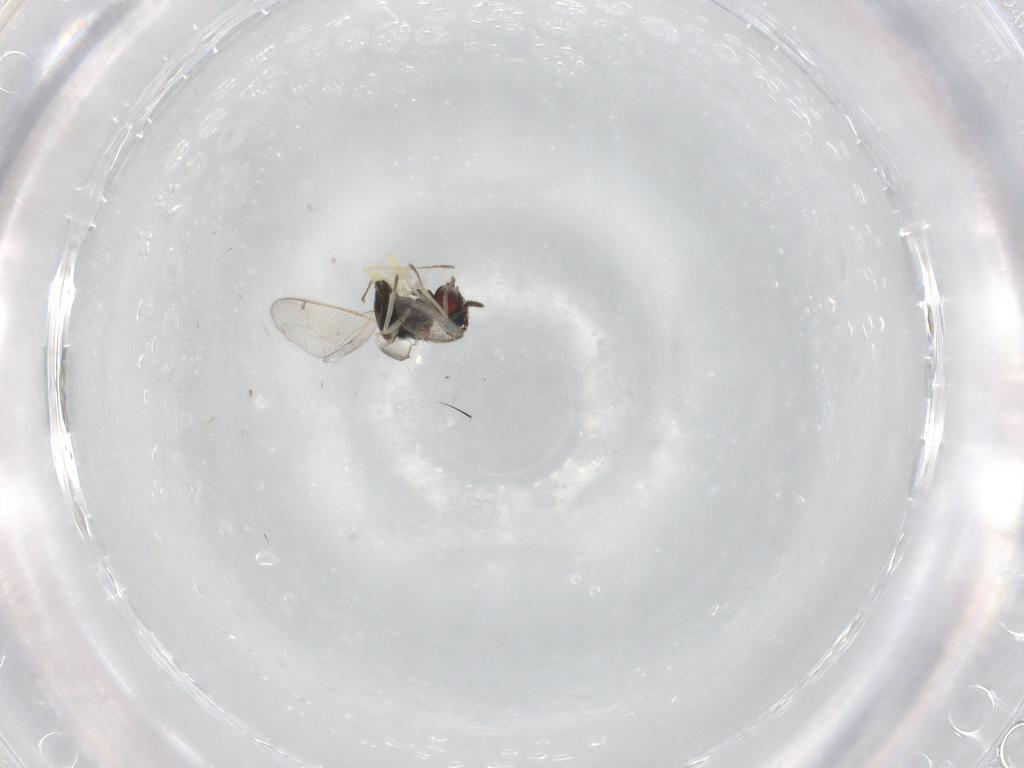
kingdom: Animalia
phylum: Arthropoda
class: Insecta
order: Hymenoptera
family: Eulophidae
